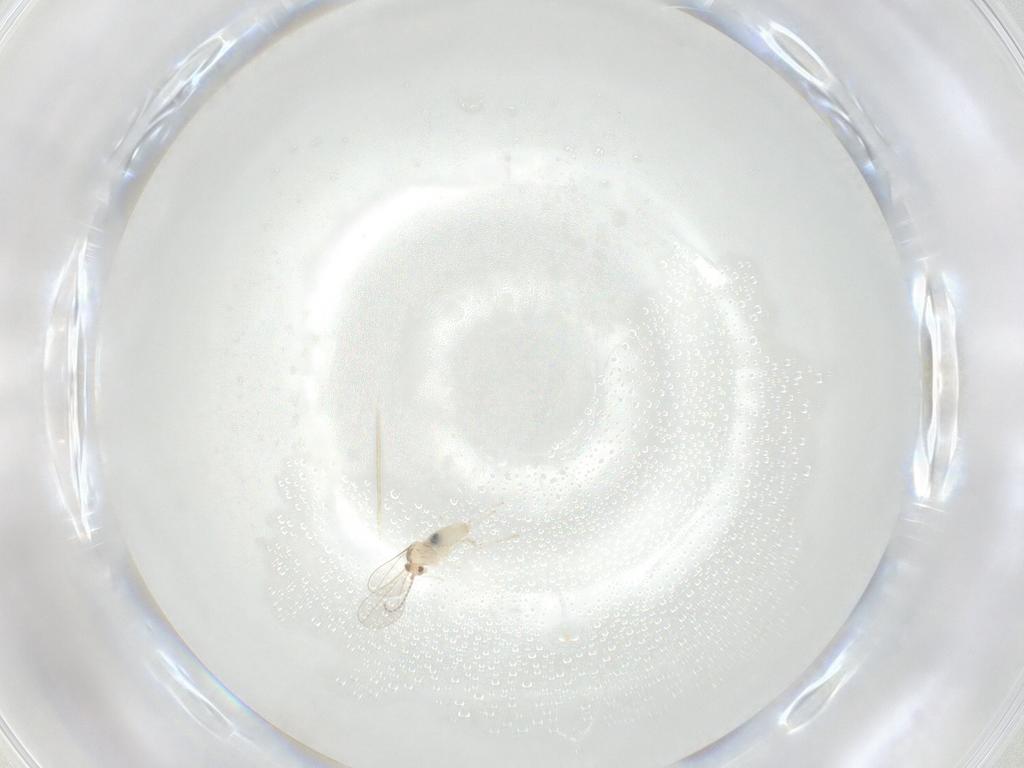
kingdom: Animalia
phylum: Arthropoda
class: Insecta
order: Diptera
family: Cecidomyiidae
